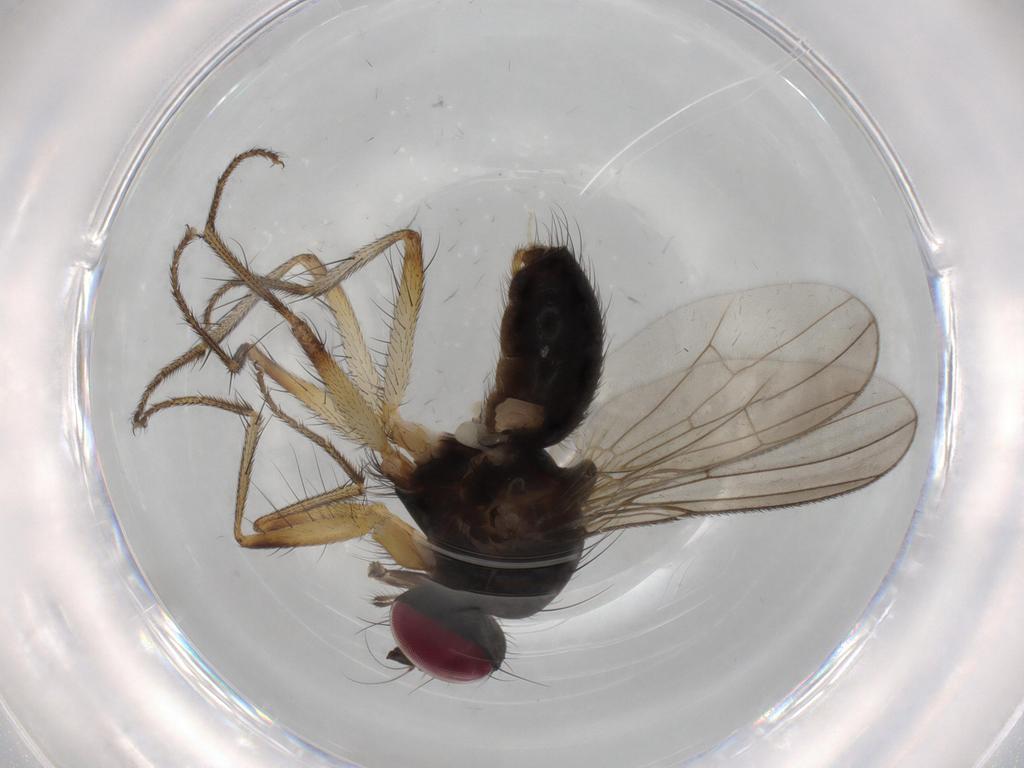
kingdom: Animalia
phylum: Arthropoda
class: Insecta
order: Diptera
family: Anthomyiidae
